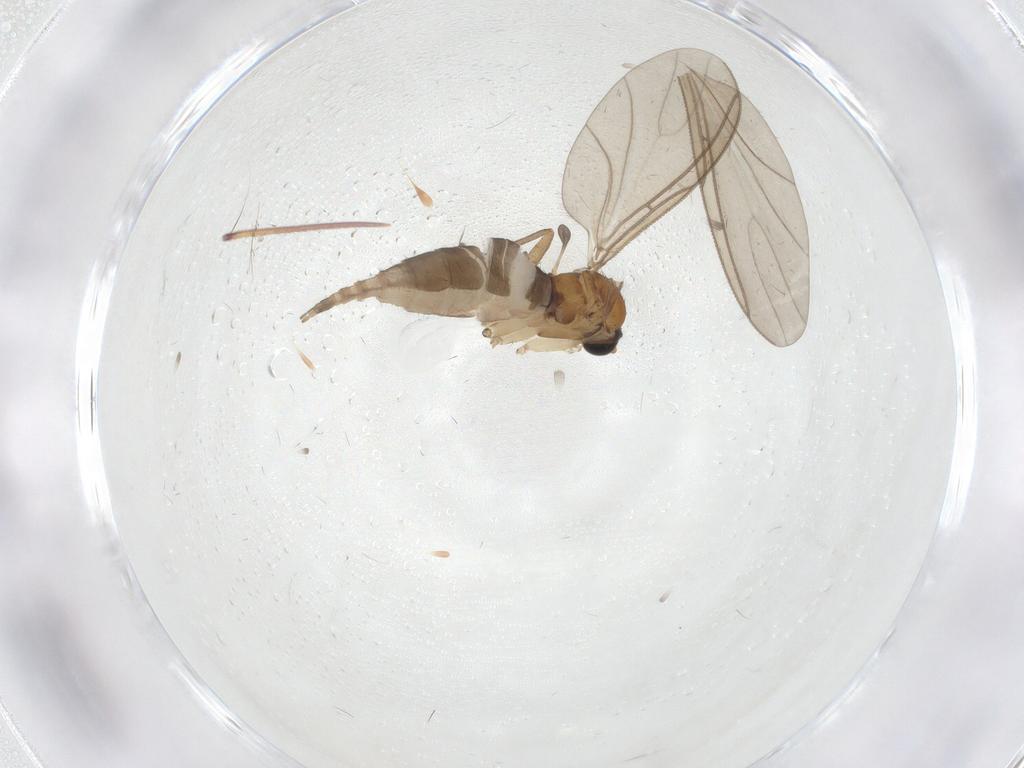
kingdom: Animalia
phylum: Arthropoda
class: Insecta
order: Diptera
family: Sciaridae
